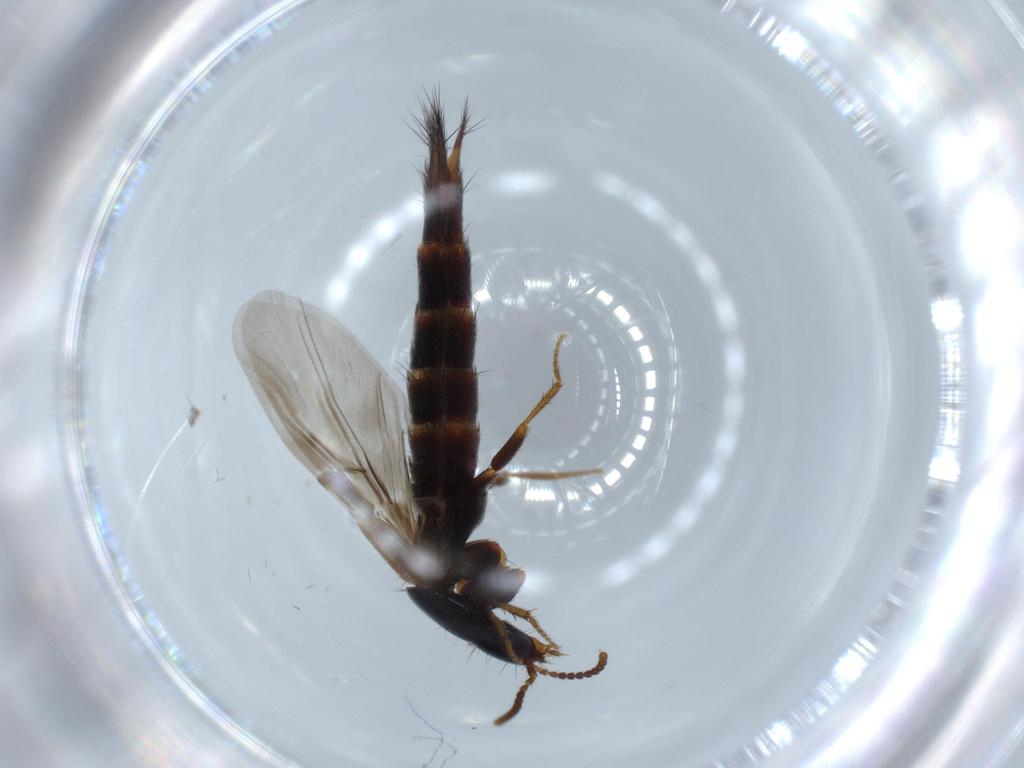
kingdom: Animalia
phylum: Arthropoda
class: Insecta
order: Coleoptera
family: Staphylinidae
